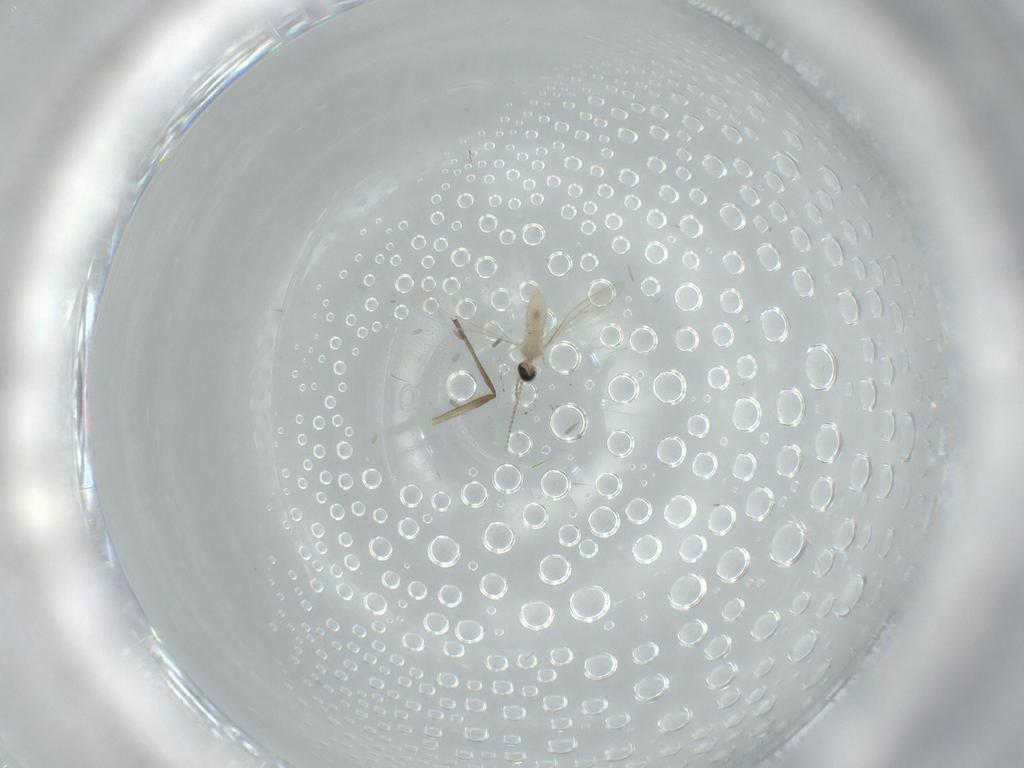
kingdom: Animalia
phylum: Arthropoda
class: Insecta
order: Diptera
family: Chironomidae
